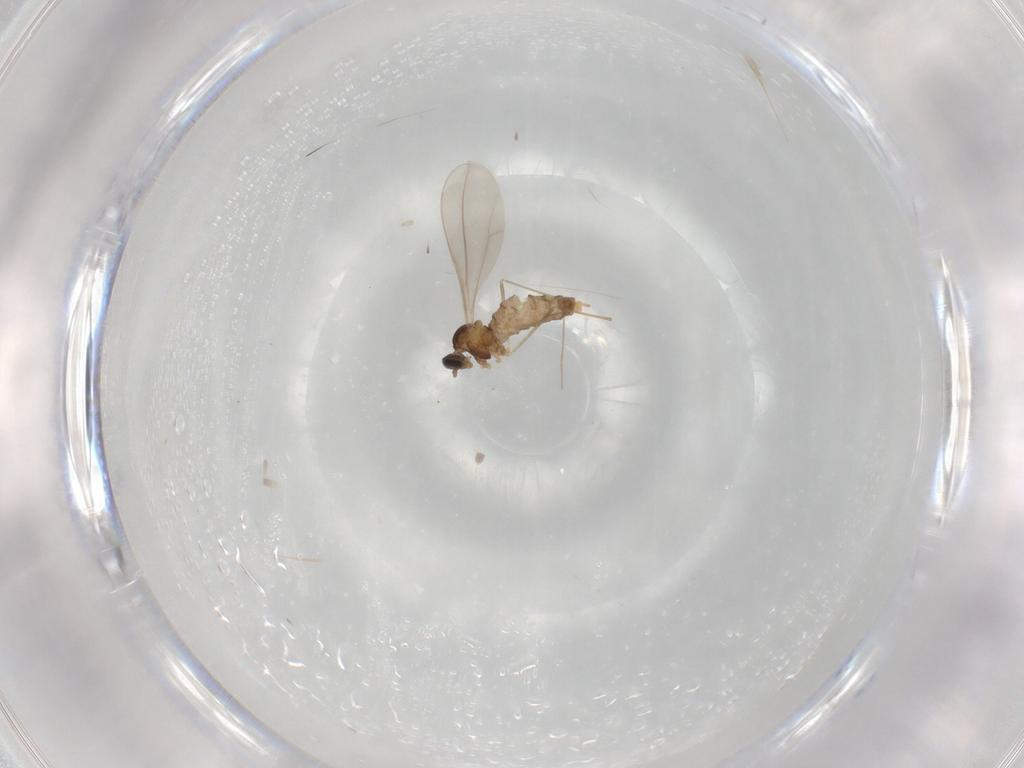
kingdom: Animalia
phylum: Arthropoda
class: Insecta
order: Diptera
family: Cecidomyiidae
